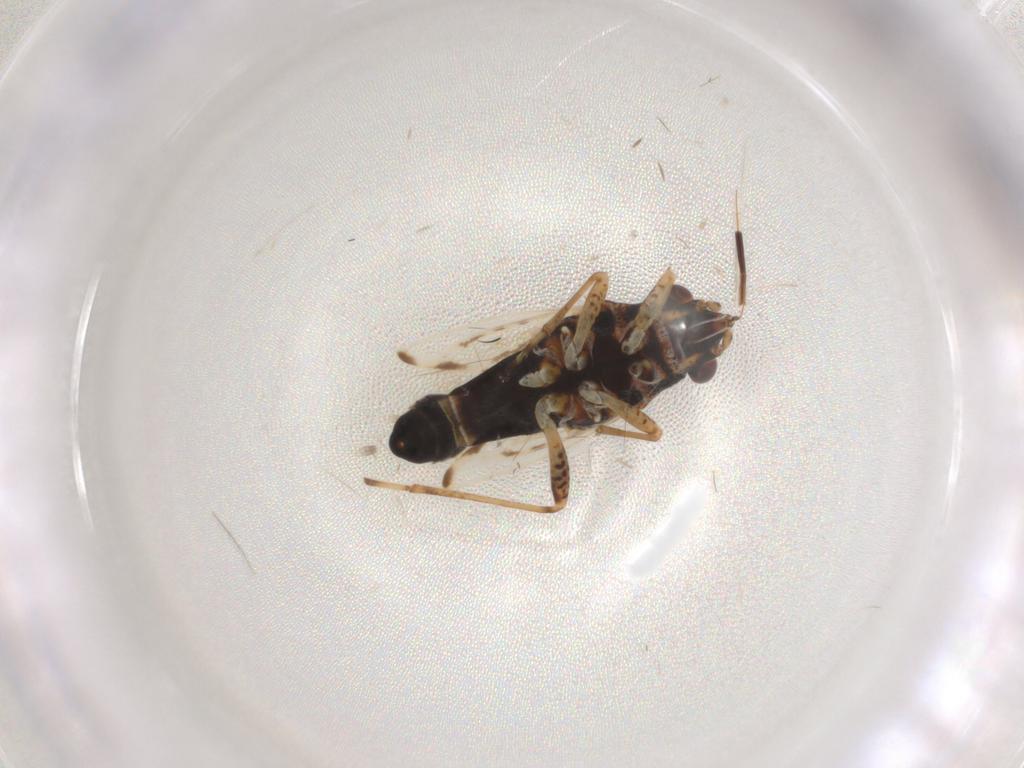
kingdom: Animalia
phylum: Arthropoda
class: Insecta
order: Hemiptera
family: Lygaeidae
